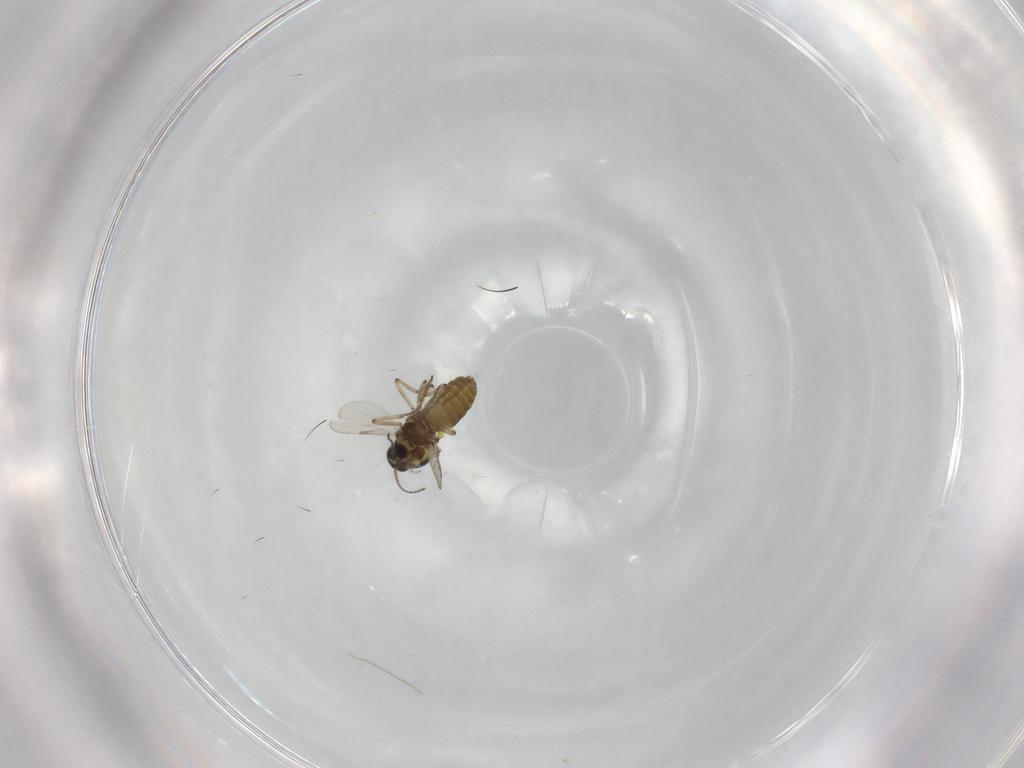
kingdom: Animalia
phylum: Arthropoda
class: Insecta
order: Diptera
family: Ceratopogonidae
